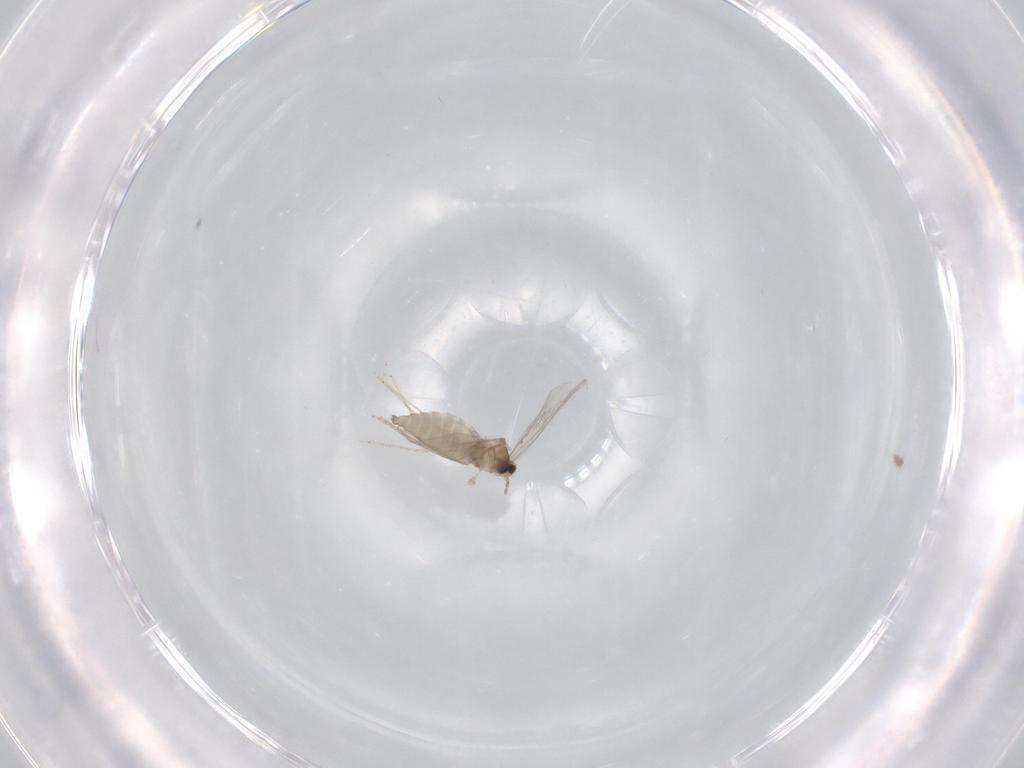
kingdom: Animalia
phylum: Arthropoda
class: Insecta
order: Diptera
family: Cecidomyiidae
